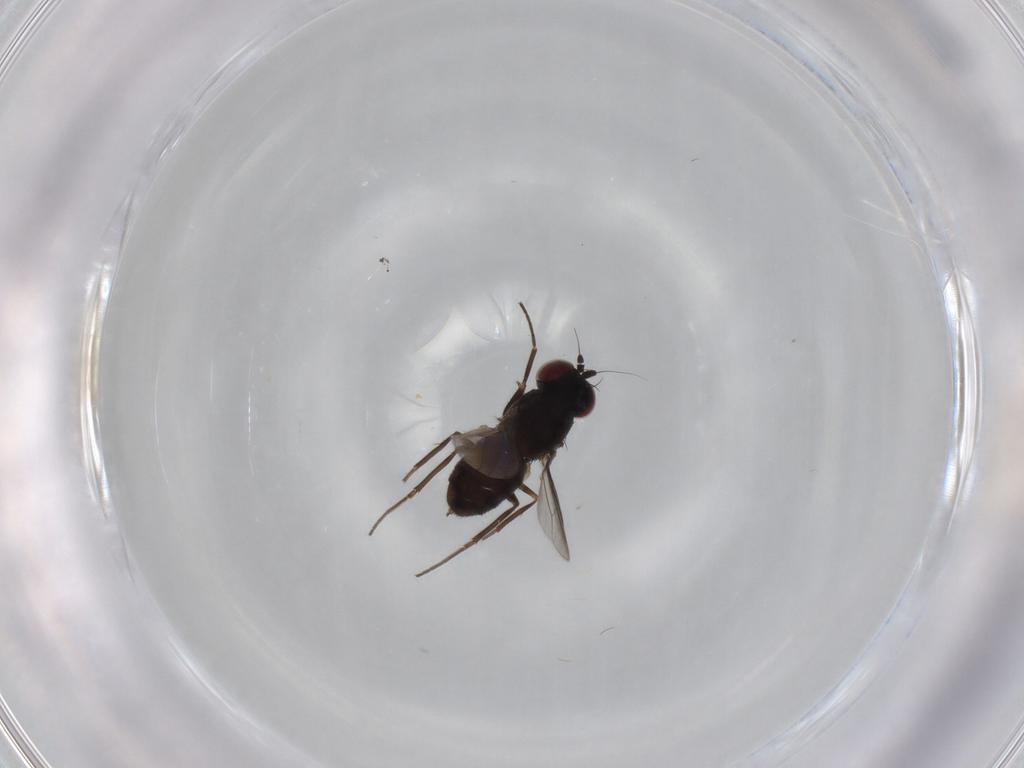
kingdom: Animalia
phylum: Arthropoda
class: Insecta
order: Diptera
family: Dolichopodidae
